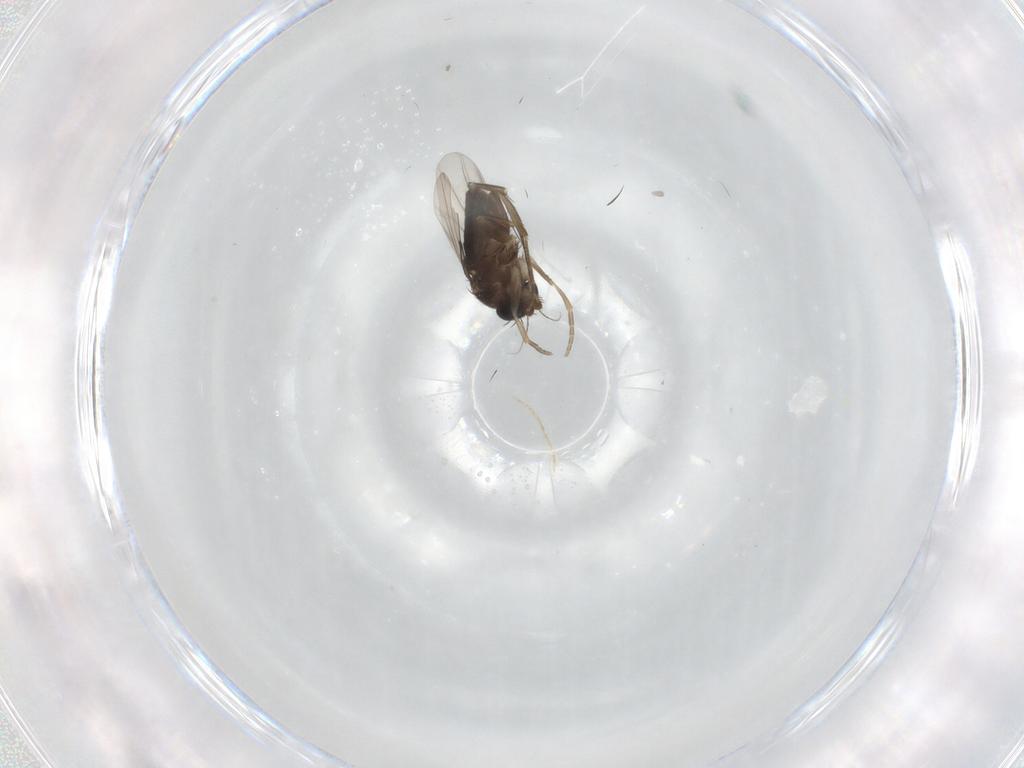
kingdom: Animalia
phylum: Arthropoda
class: Insecta
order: Diptera
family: Phoridae
